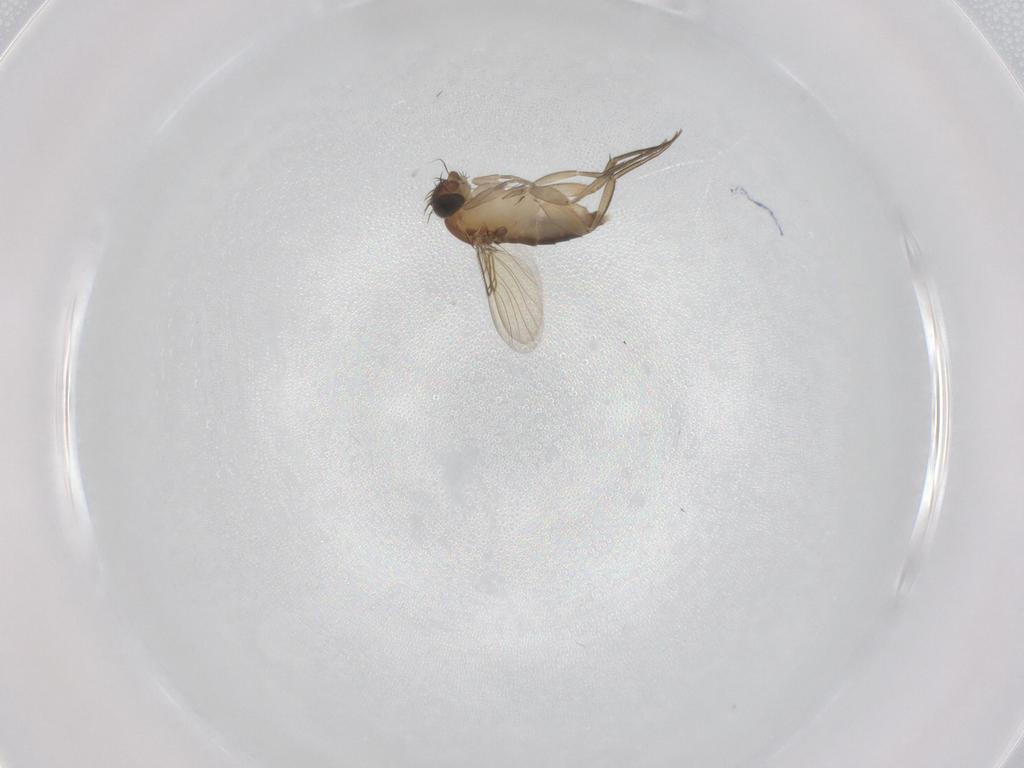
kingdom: Animalia
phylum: Arthropoda
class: Insecta
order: Diptera
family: Phoridae
